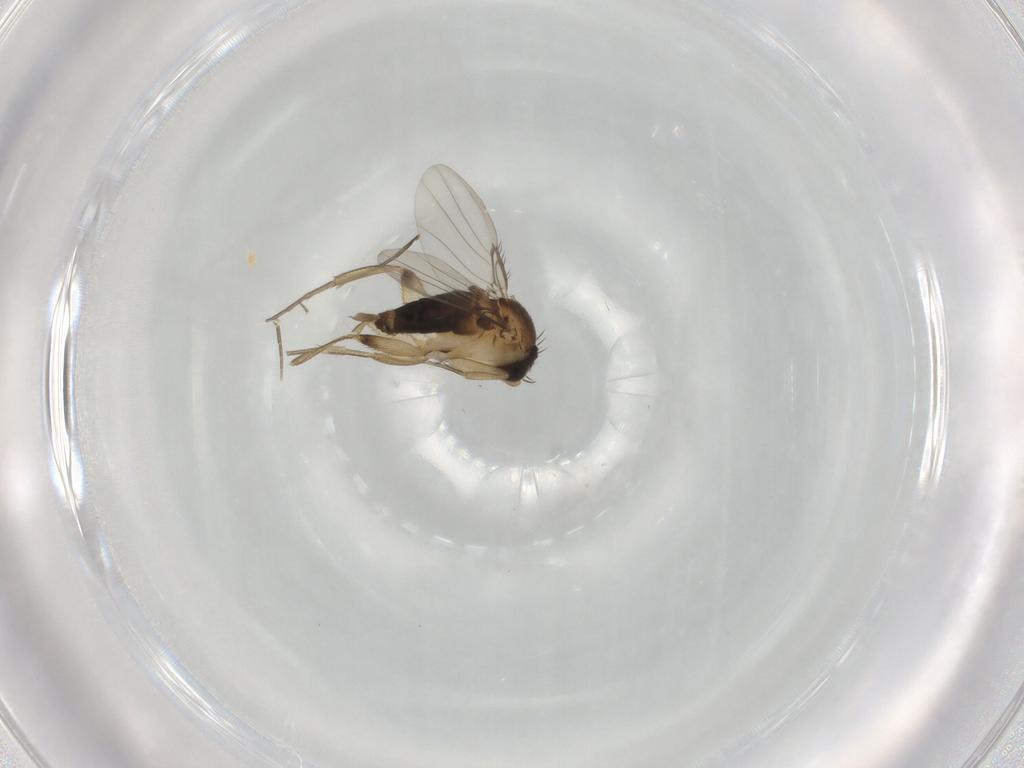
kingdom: Animalia
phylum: Arthropoda
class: Insecta
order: Diptera
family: Phoridae
